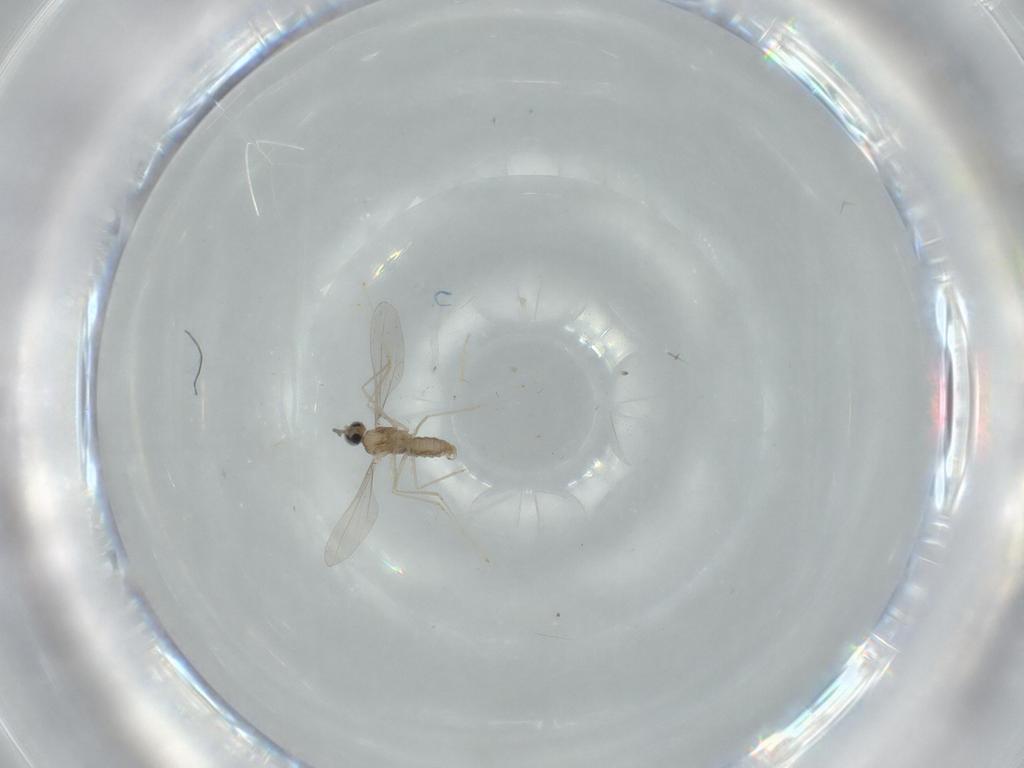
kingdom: Animalia
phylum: Arthropoda
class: Insecta
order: Diptera
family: Cecidomyiidae
